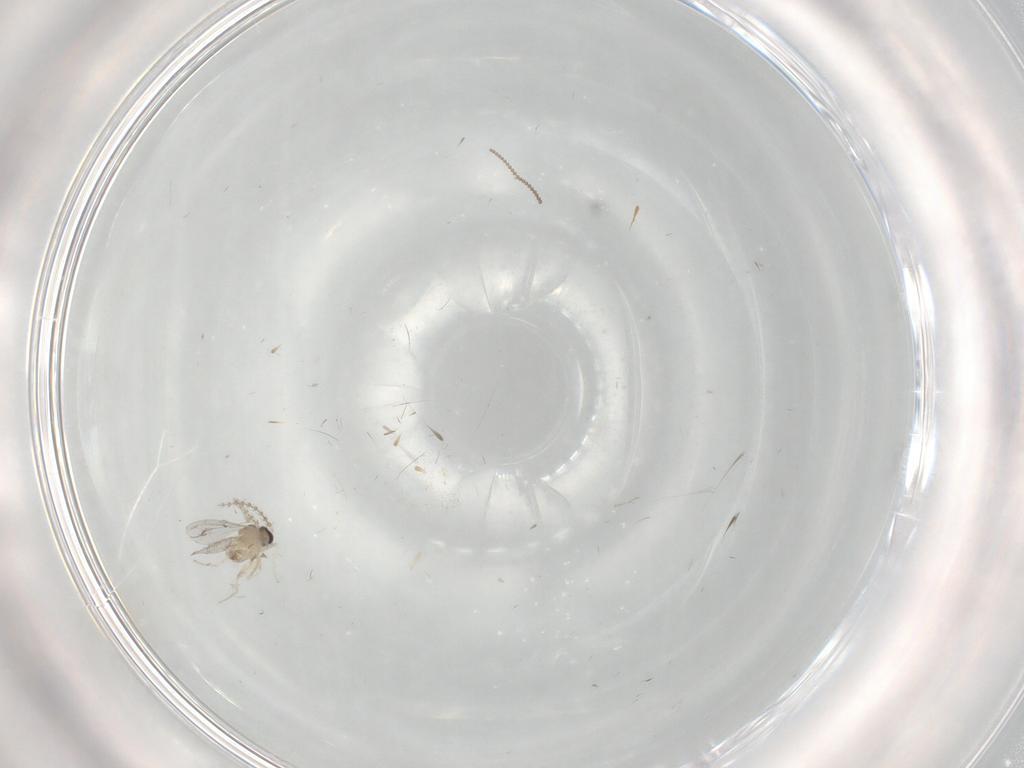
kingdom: Animalia
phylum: Arthropoda
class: Insecta
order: Diptera
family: Cecidomyiidae
